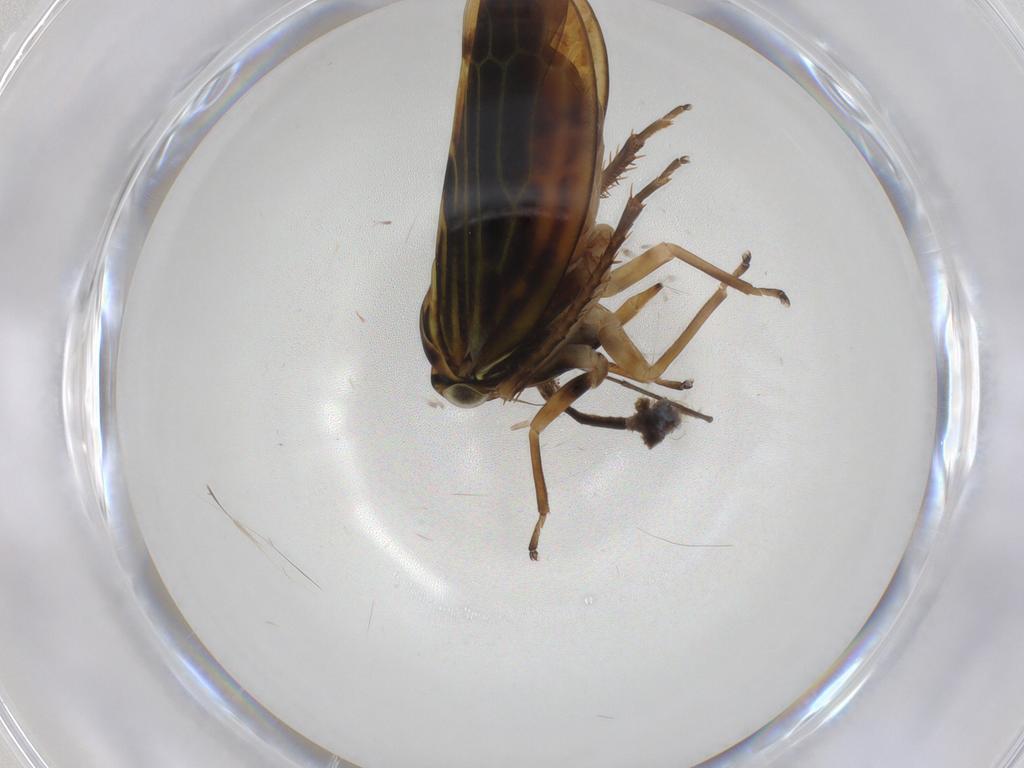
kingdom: Animalia
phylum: Arthropoda
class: Insecta
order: Hemiptera
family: Cicadellidae
